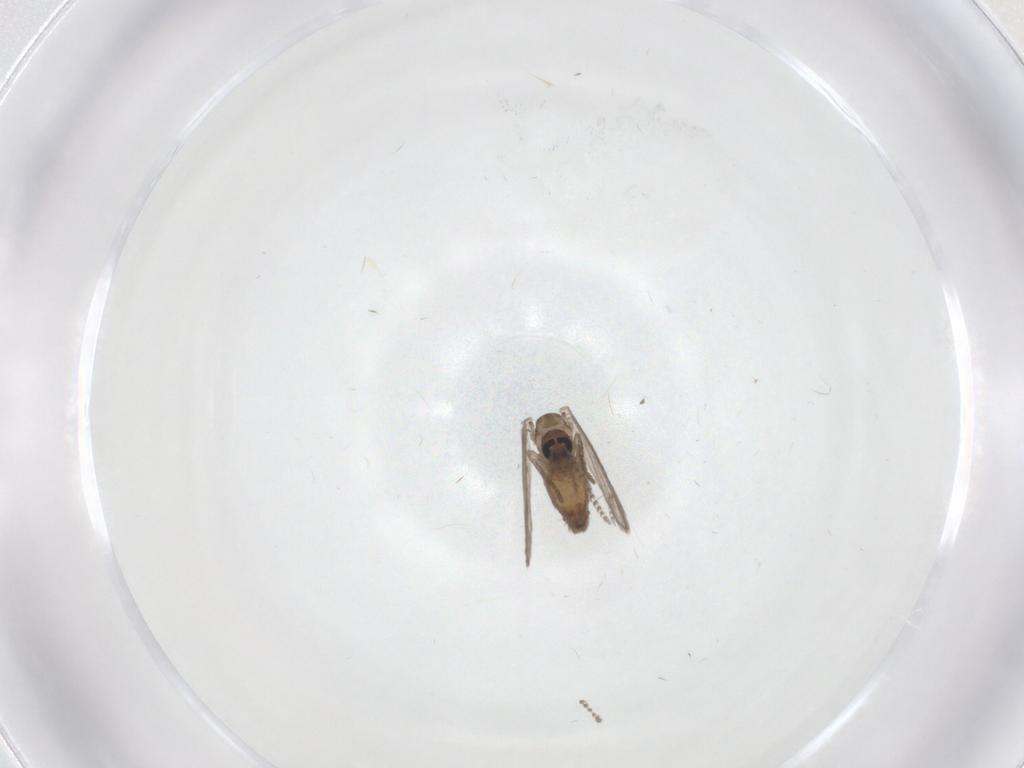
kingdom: Animalia
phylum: Arthropoda
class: Insecta
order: Diptera
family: Psychodidae
